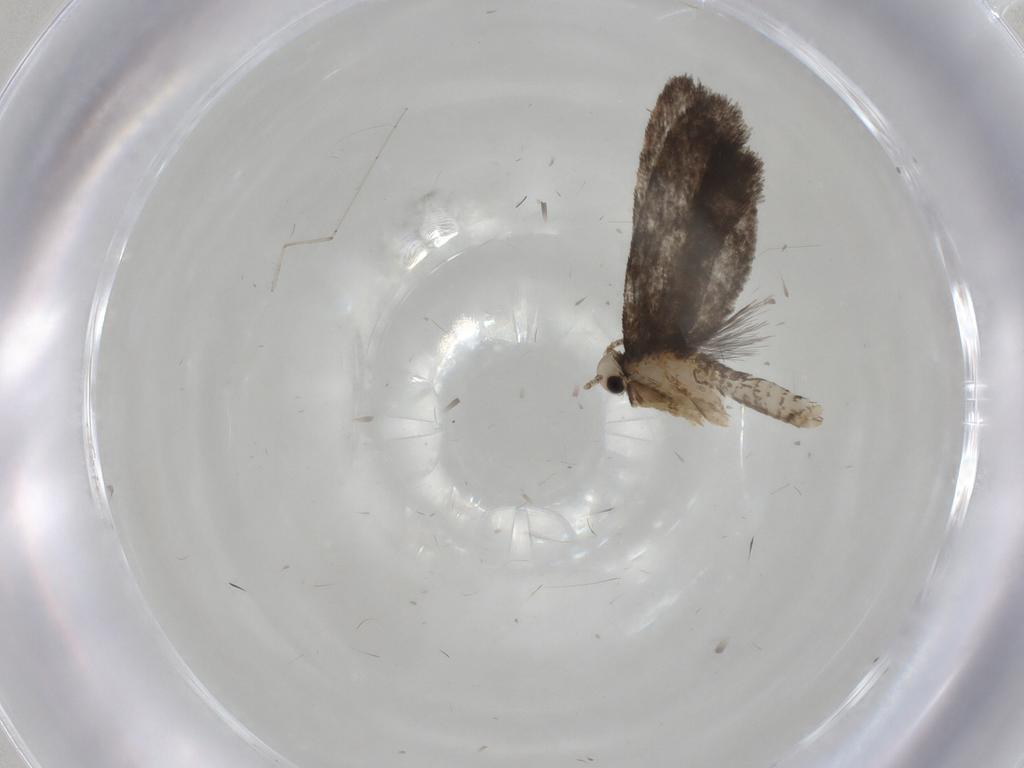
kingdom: Animalia
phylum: Arthropoda
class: Insecta
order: Lepidoptera
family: Psychidae
